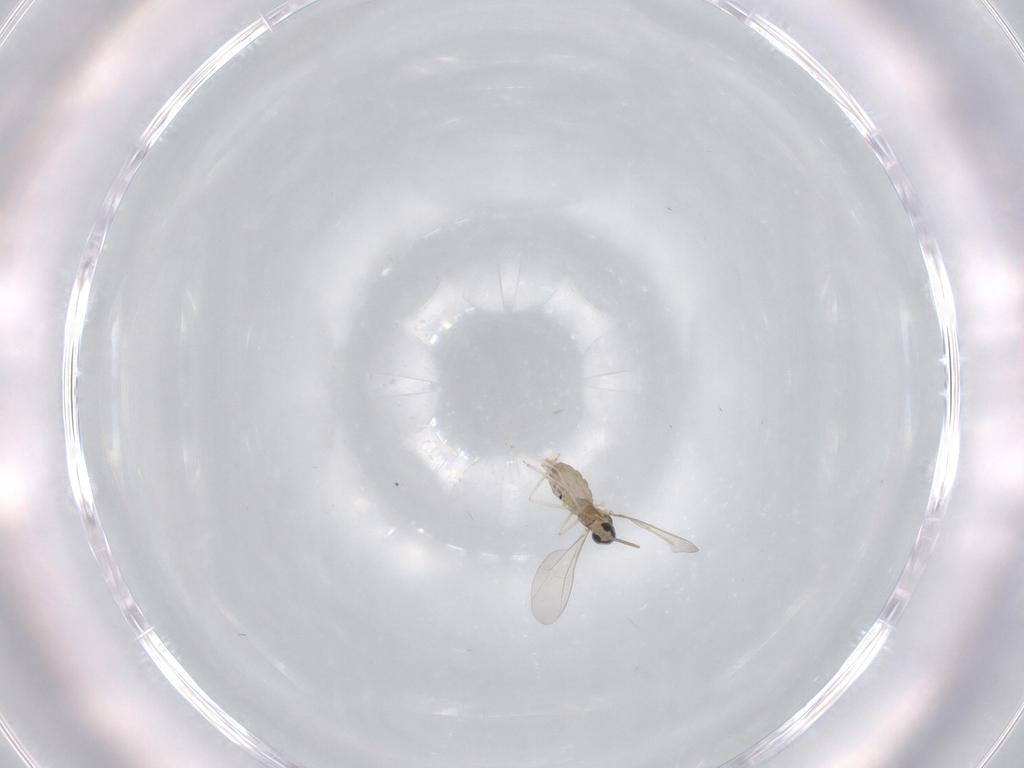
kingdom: Animalia
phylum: Arthropoda
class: Insecta
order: Diptera
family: Cecidomyiidae
